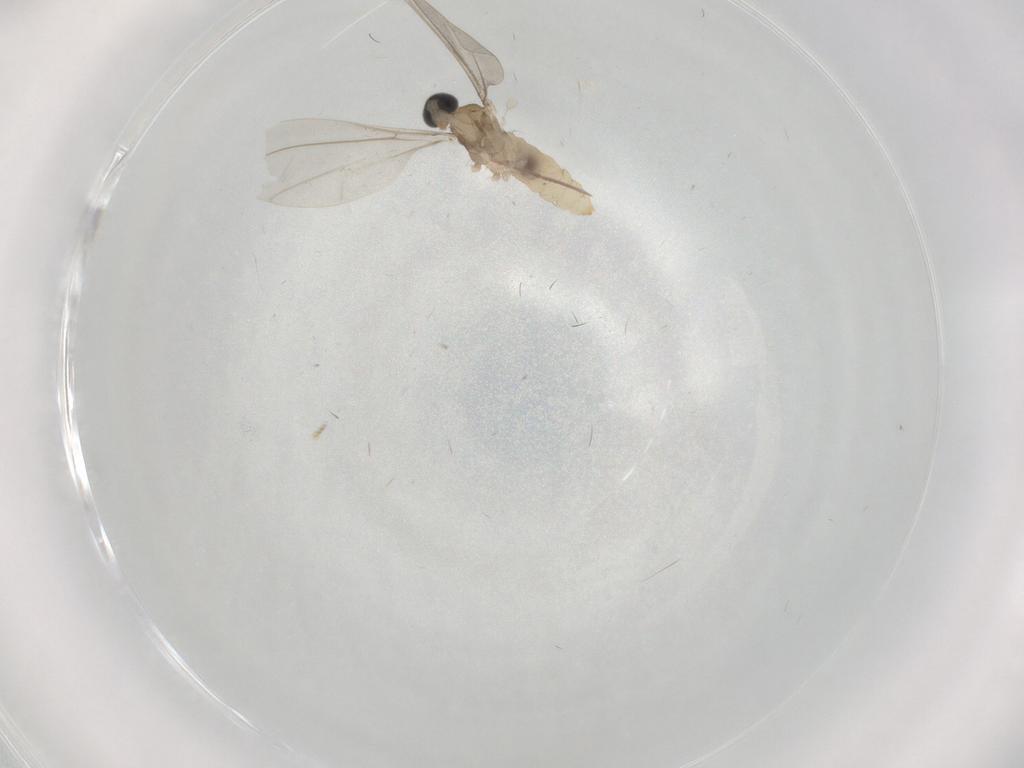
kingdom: Animalia
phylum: Arthropoda
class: Insecta
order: Diptera
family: Cecidomyiidae
